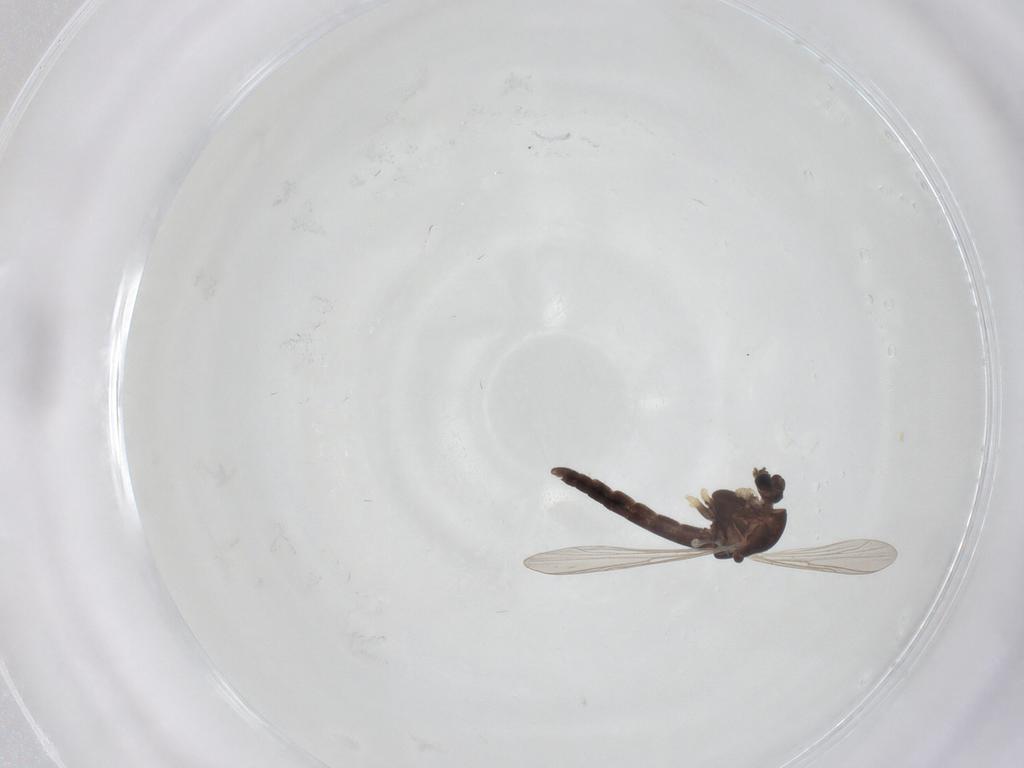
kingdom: Animalia
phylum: Arthropoda
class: Insecta
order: Diptera
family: Chironomidae
